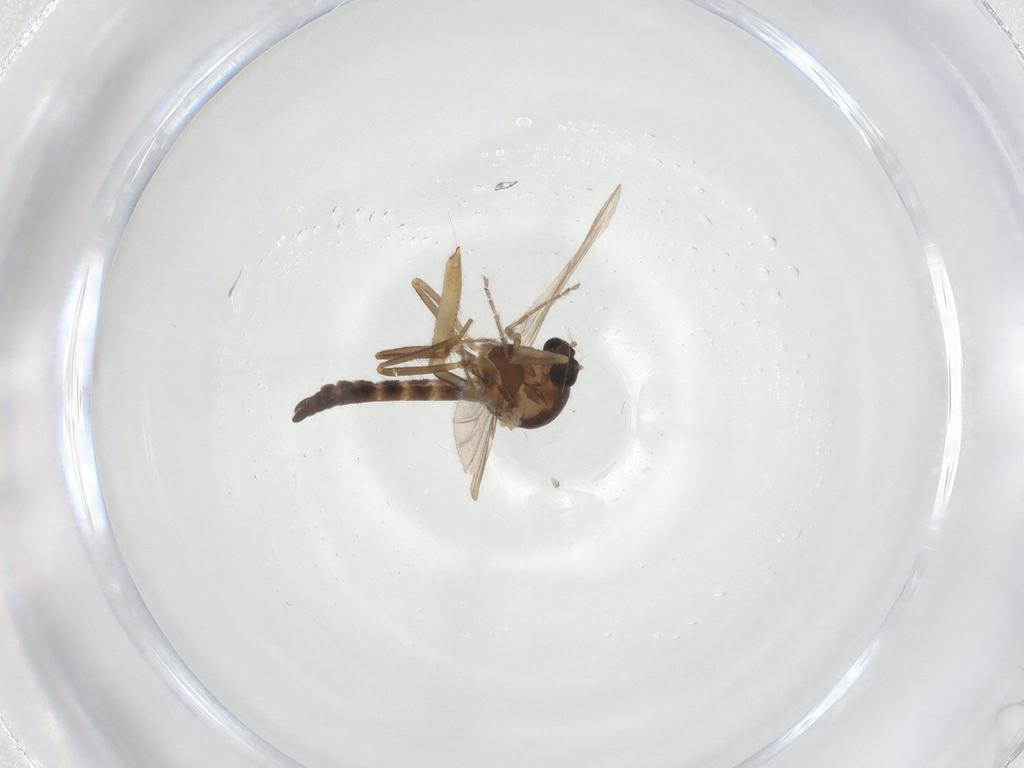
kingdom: Animalia
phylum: Arthropoda
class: Insecta
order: Diptera
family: Ceratopogonidae
